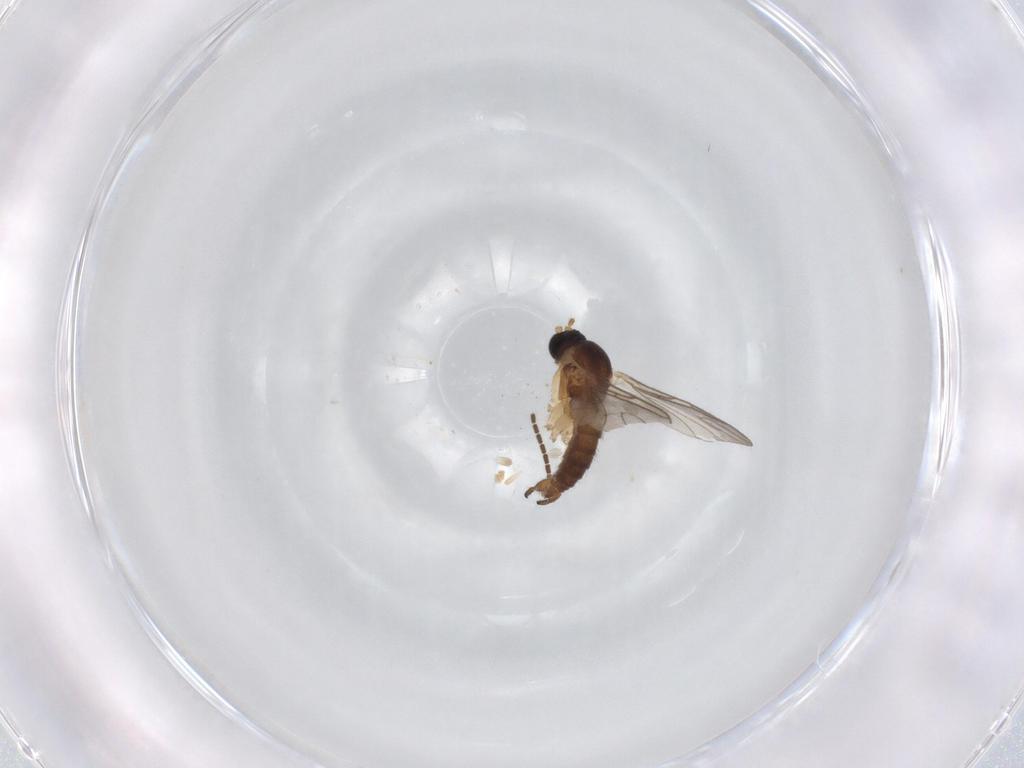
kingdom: Animalia
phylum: Arthropoda
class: Insecta
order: Diptera
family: Sciaridae
